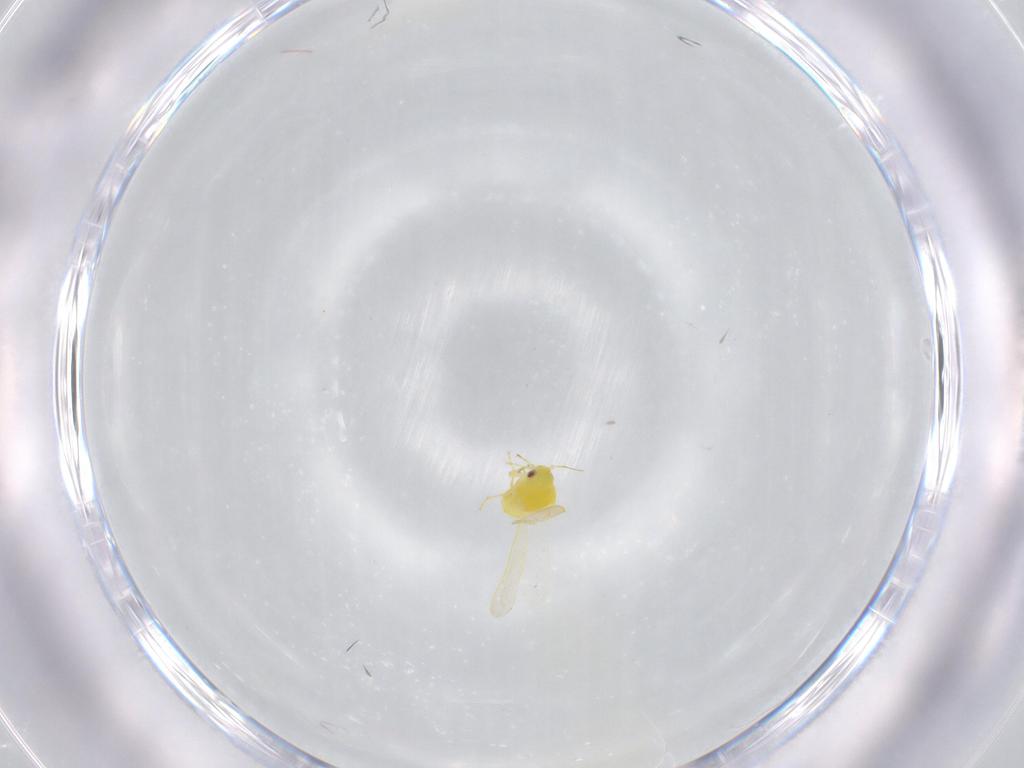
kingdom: Animalia
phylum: Arthropoda
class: Insecta
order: Hemiptera
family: Aleyrodidae
